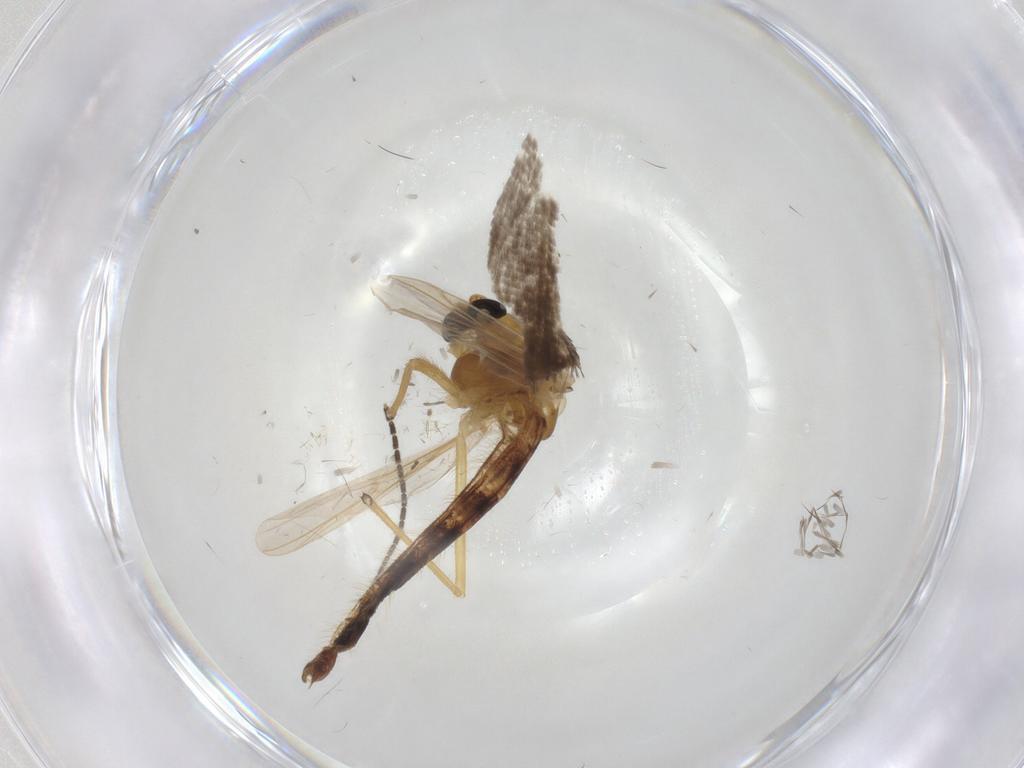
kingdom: Animalia
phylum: Arthropoda
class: Insecta
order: Diptera
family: Chironomidae
